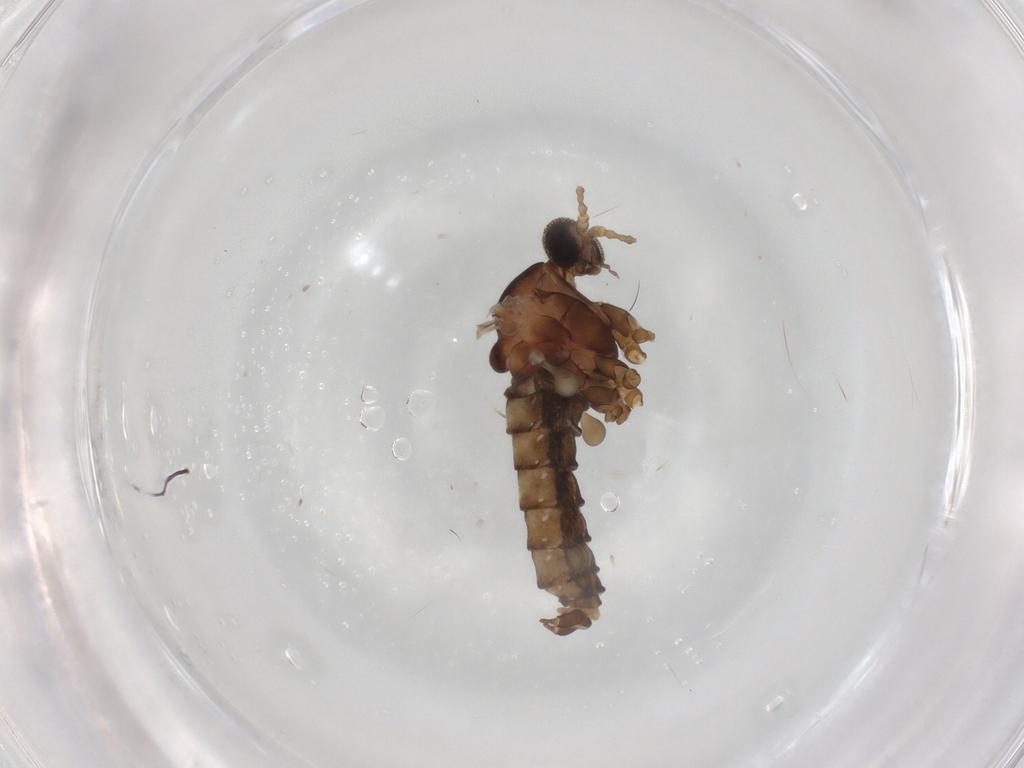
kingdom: Animalia
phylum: Arthropoda
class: Insecta
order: Diptera
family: Cecidomyiidae
